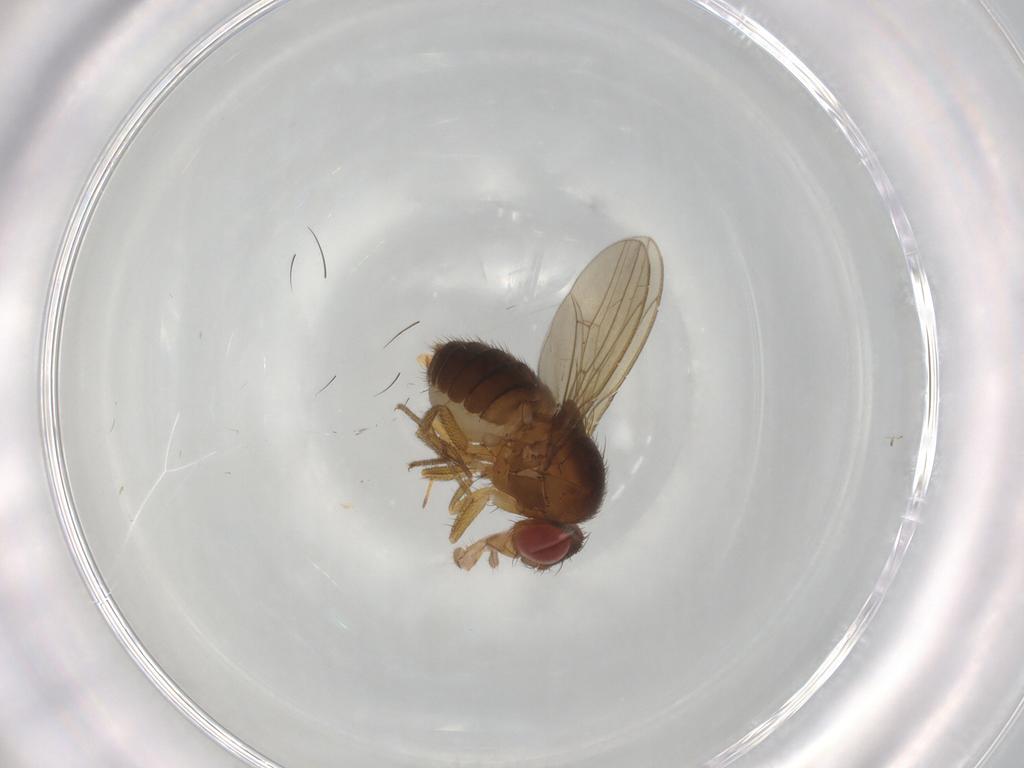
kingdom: Animalia
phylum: Arthropoda
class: Insecta
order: Diptera
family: Drosophilidae
